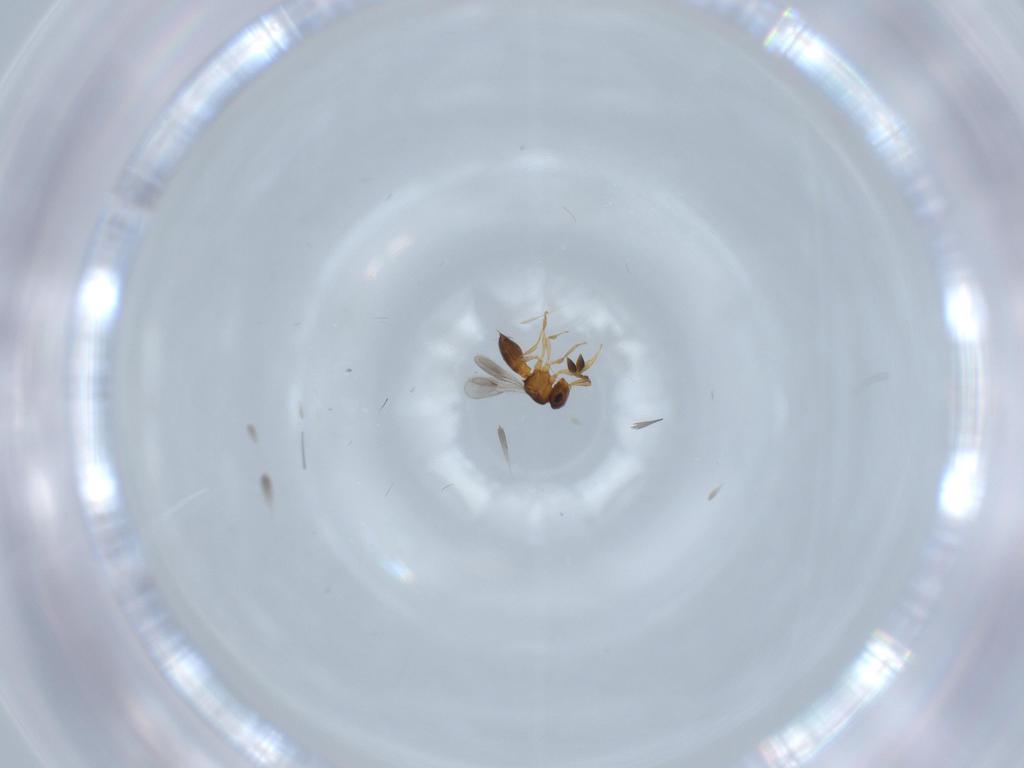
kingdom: Animalia
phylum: Arthropoda
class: Insecta
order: Hymenoptera
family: Scelionidae
